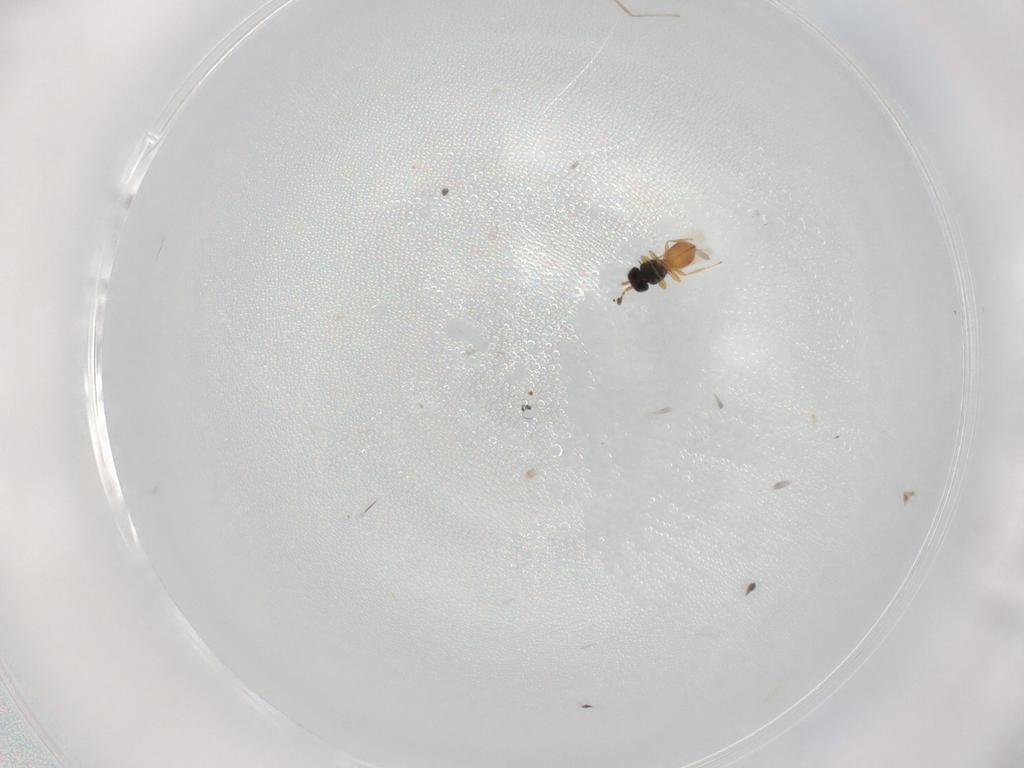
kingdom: Animalia
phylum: Arthropoda
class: Insecta
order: Hymenoptera
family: Scelionidae
